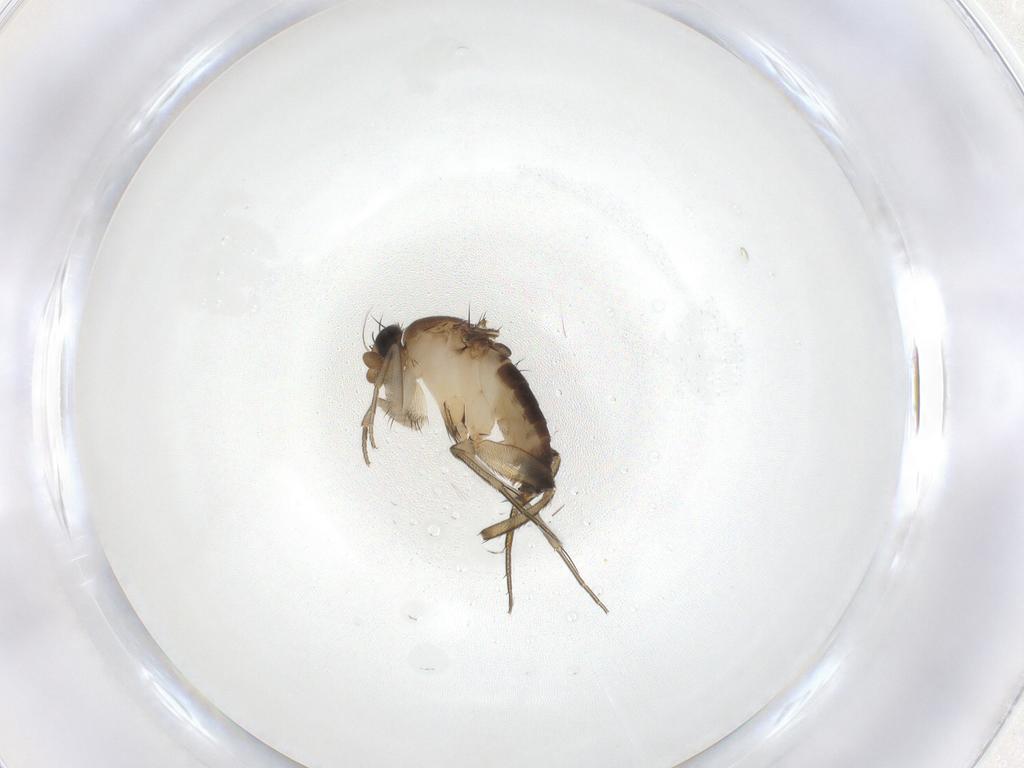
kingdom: Animalia
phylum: Arthropoda
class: Insecta
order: Diptera
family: Phoridae
